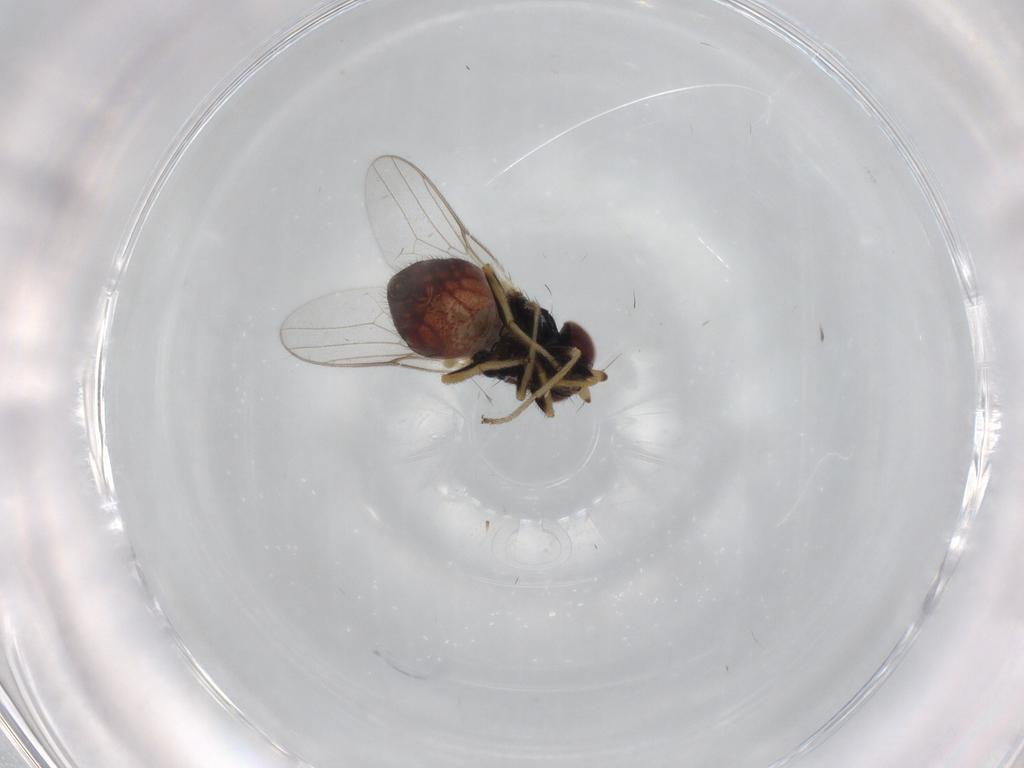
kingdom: Animalia
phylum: Arthropoda
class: Insecta
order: Diptera
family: Chloropidae
